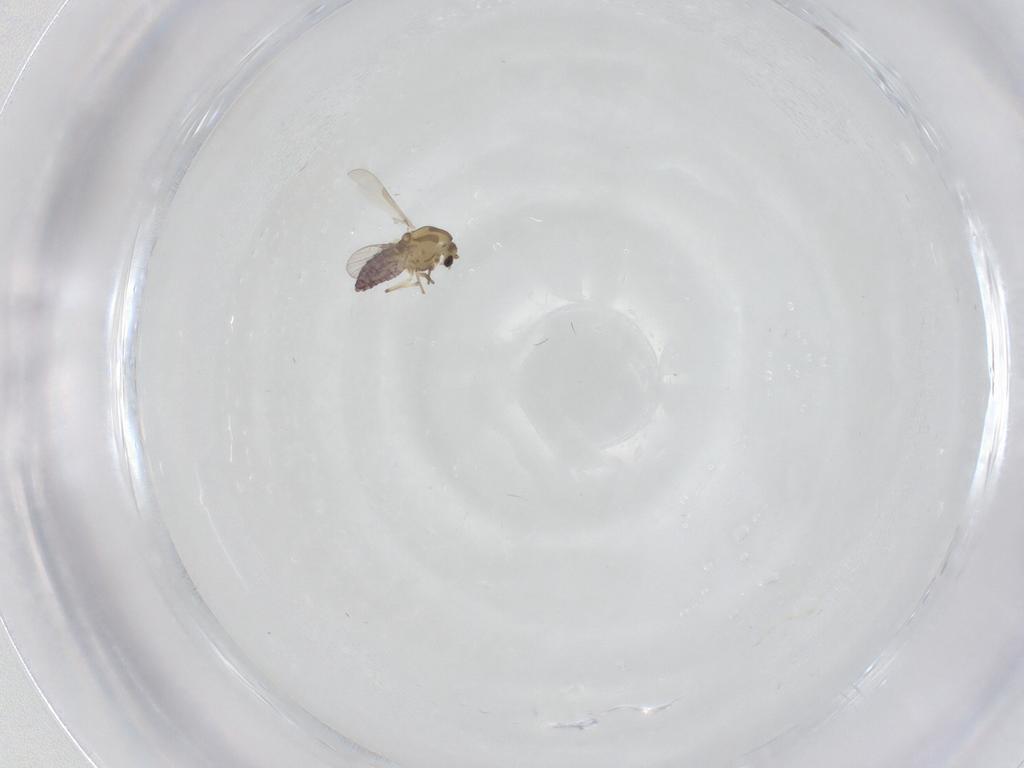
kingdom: Animalia
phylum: Arthropoda
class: Insecta
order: Diptera
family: Chironomidae
